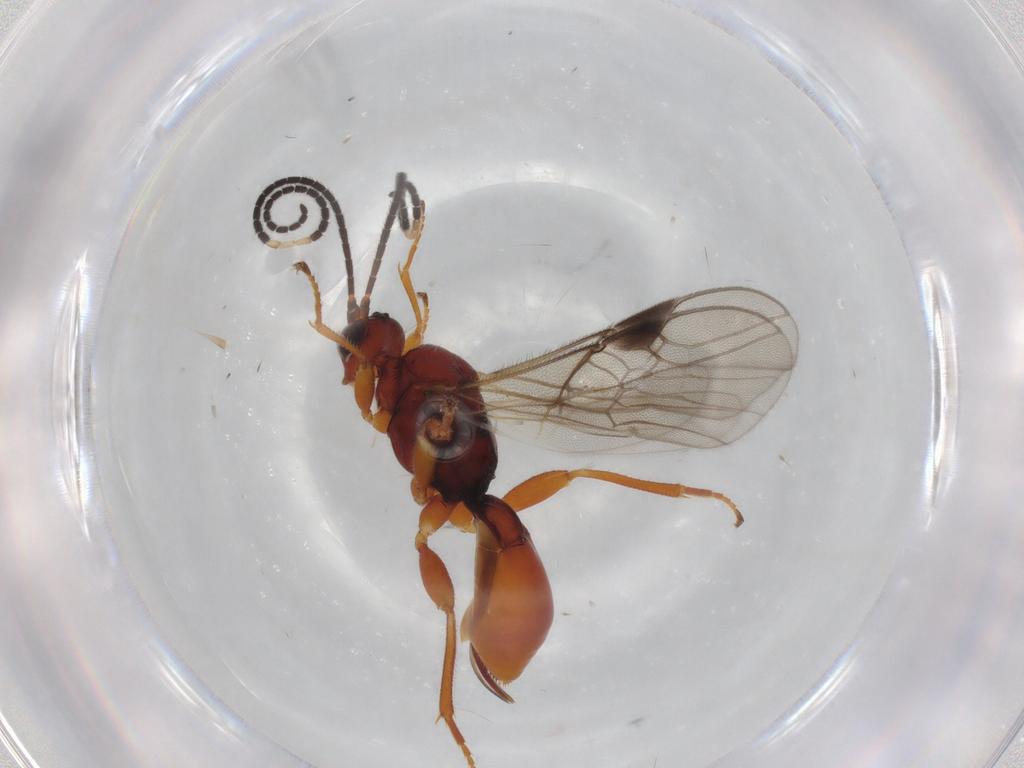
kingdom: Animalia
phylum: Arthropoda
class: Insecta
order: Hymenoptera
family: Braconidae
